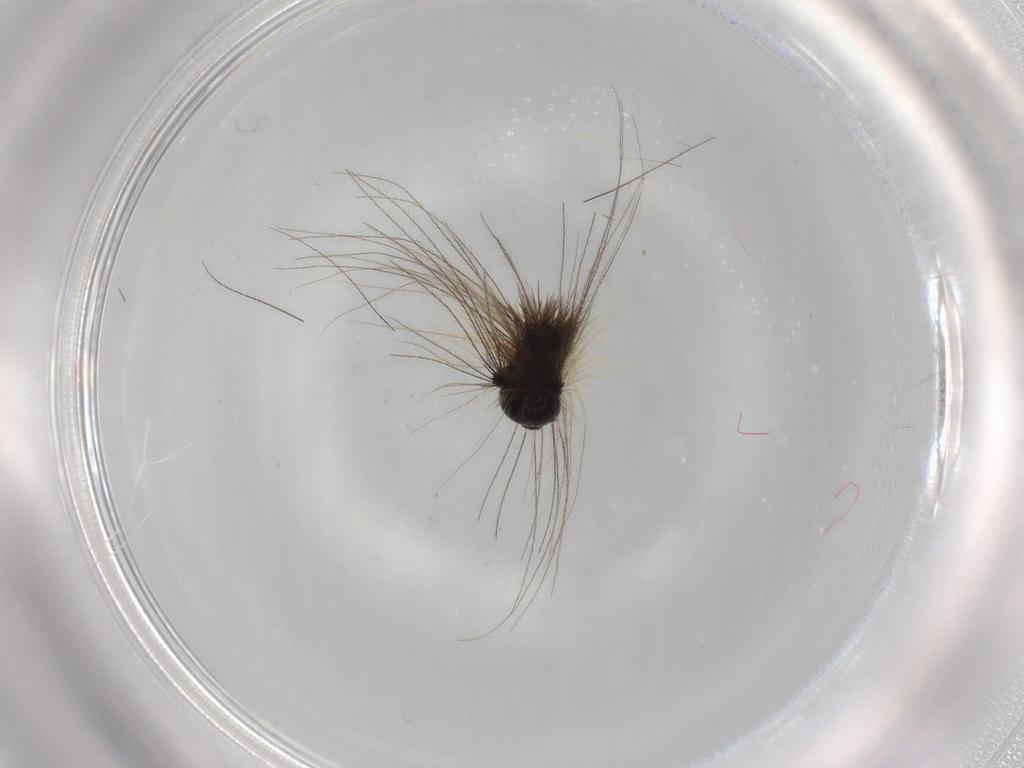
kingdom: Animalia
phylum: Arthropoda
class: Insecta
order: Lepidoptera
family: Erebidae
